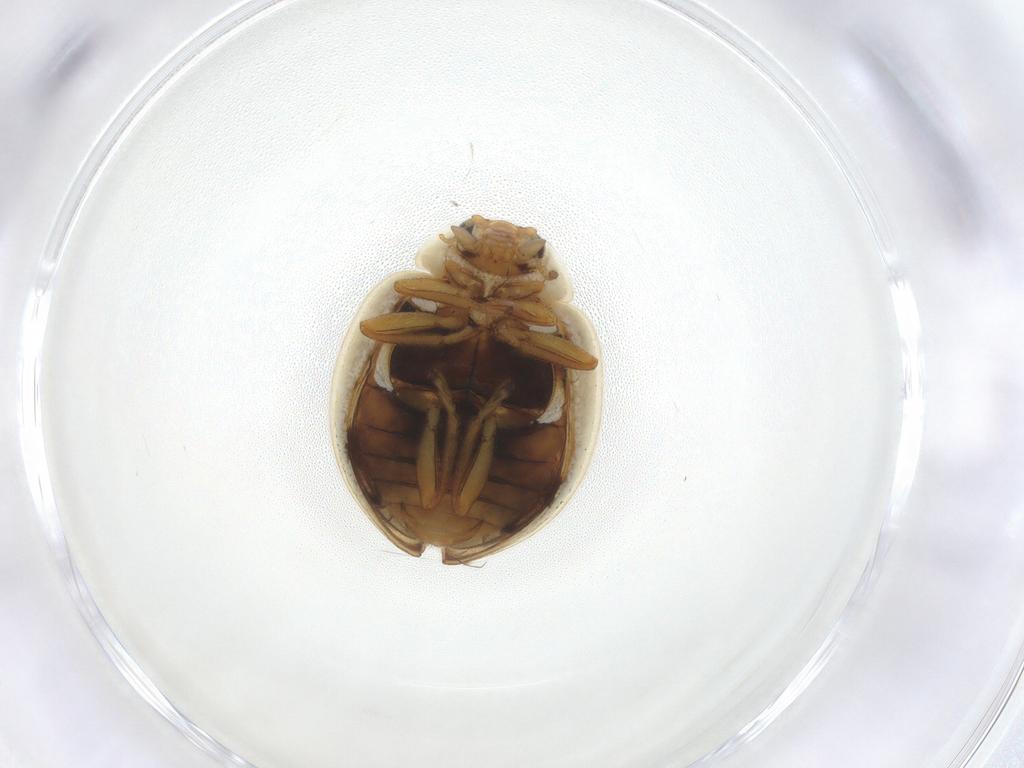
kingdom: Animalia
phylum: Arthropoda
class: Insecta
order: Coleoptera
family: Coccinellidae
